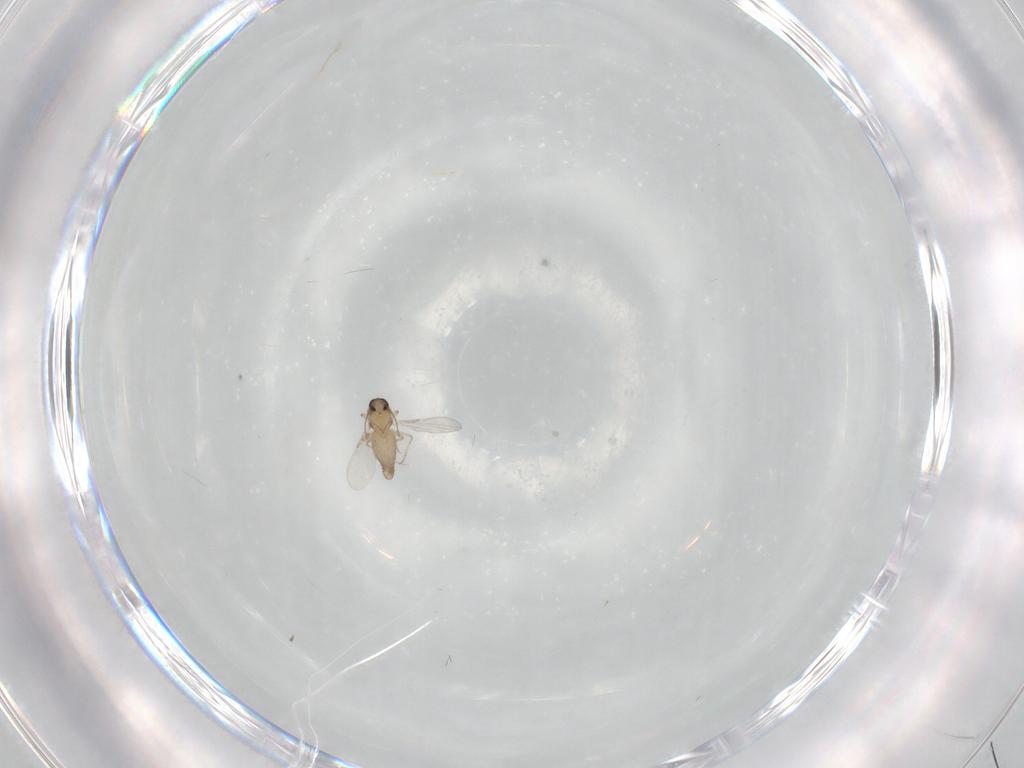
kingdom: Animalia
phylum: Arthropoda
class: Insecta
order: Diptera
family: Ceratopogonidae
